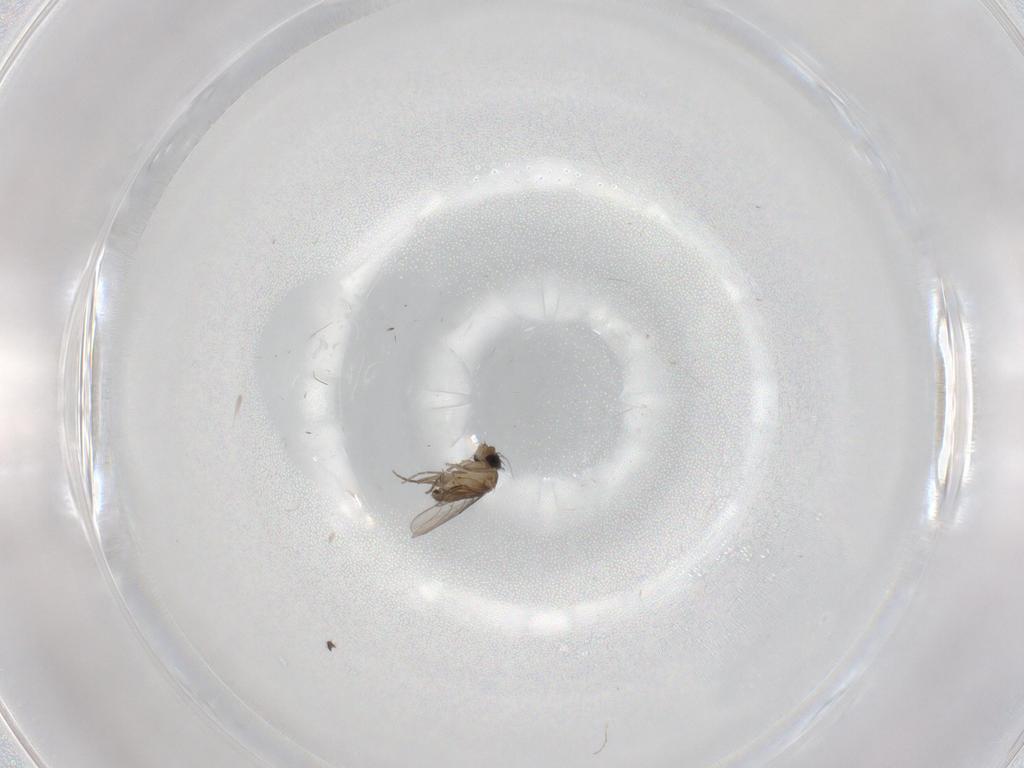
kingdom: Animalia
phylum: Arthropoda
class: Insecta
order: Diptera
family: Phoridae
